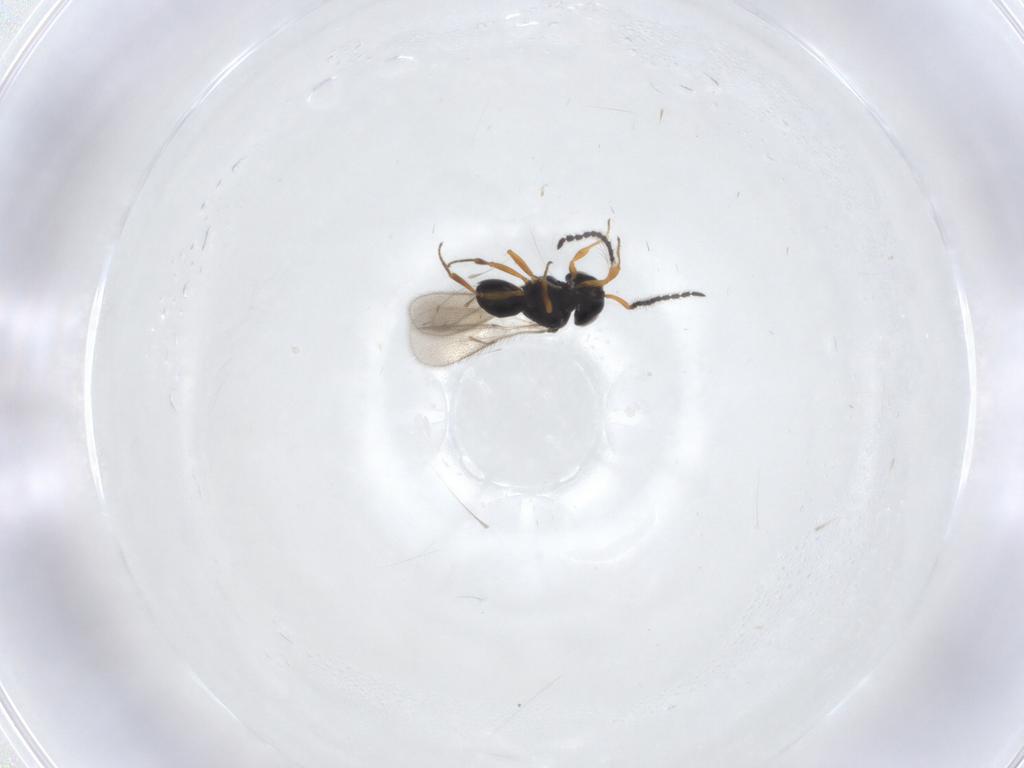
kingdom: Animalia
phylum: Arthropoda
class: Insecta
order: Hymenoptera
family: Scelionidae
